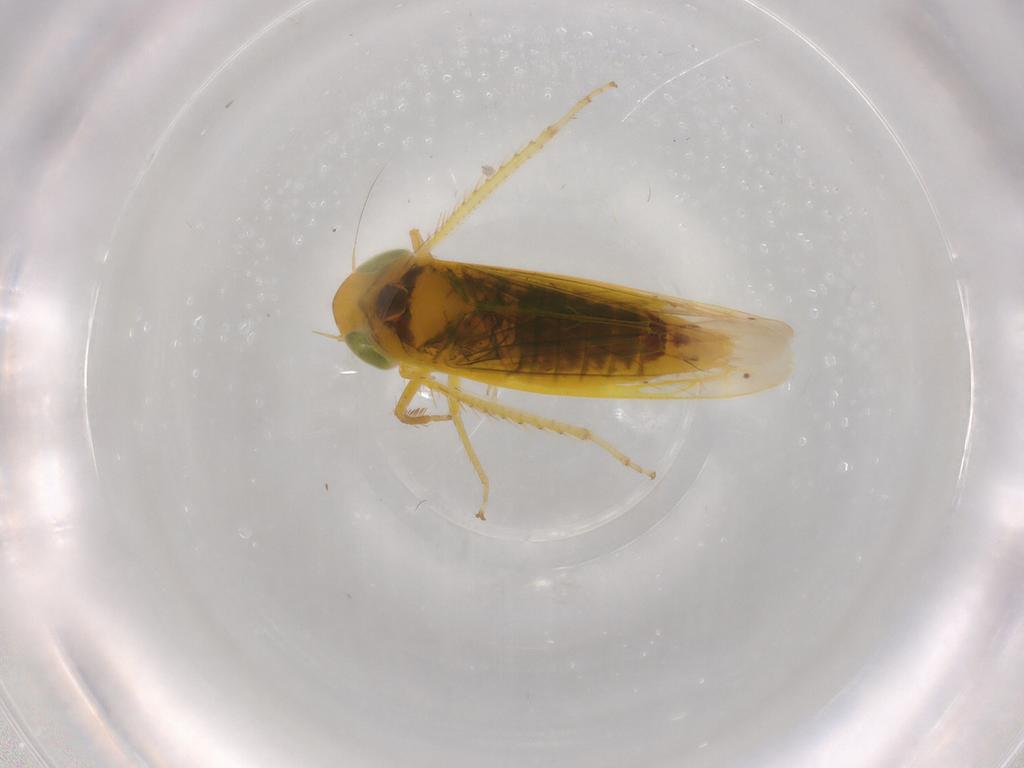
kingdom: Animalia
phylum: Arthropoda
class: Insecta
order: Hemiptera
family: Cicadellidae
